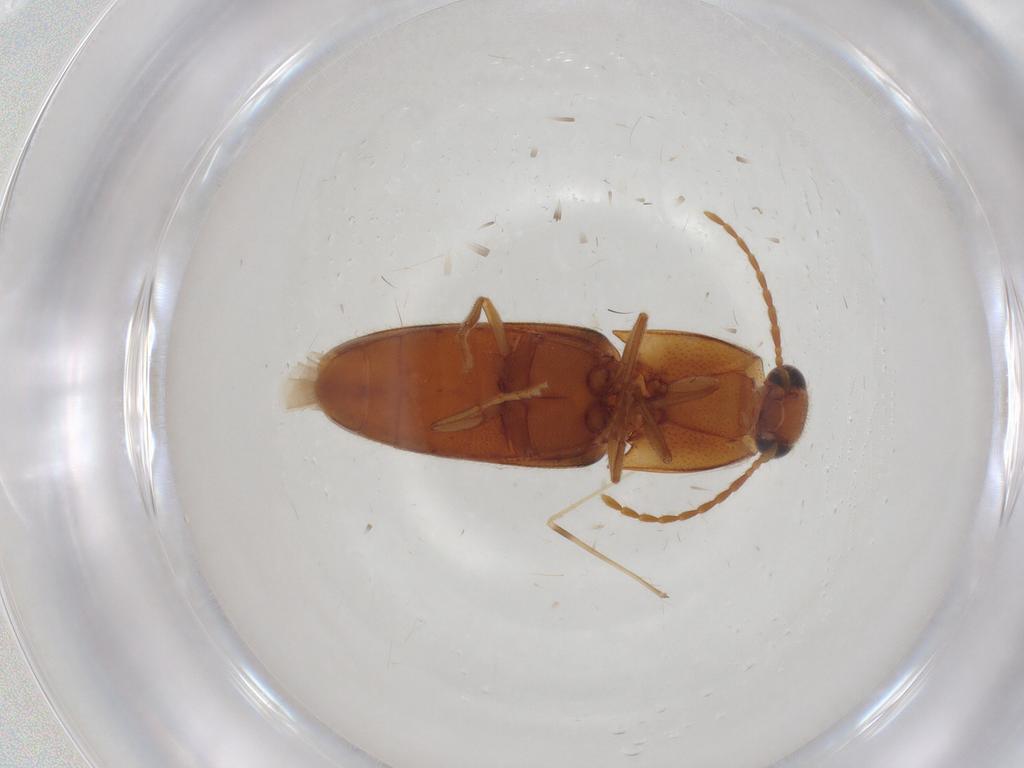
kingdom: Animalia
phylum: Arthropoda
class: Insecta
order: Coleoptera
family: Elateridae
